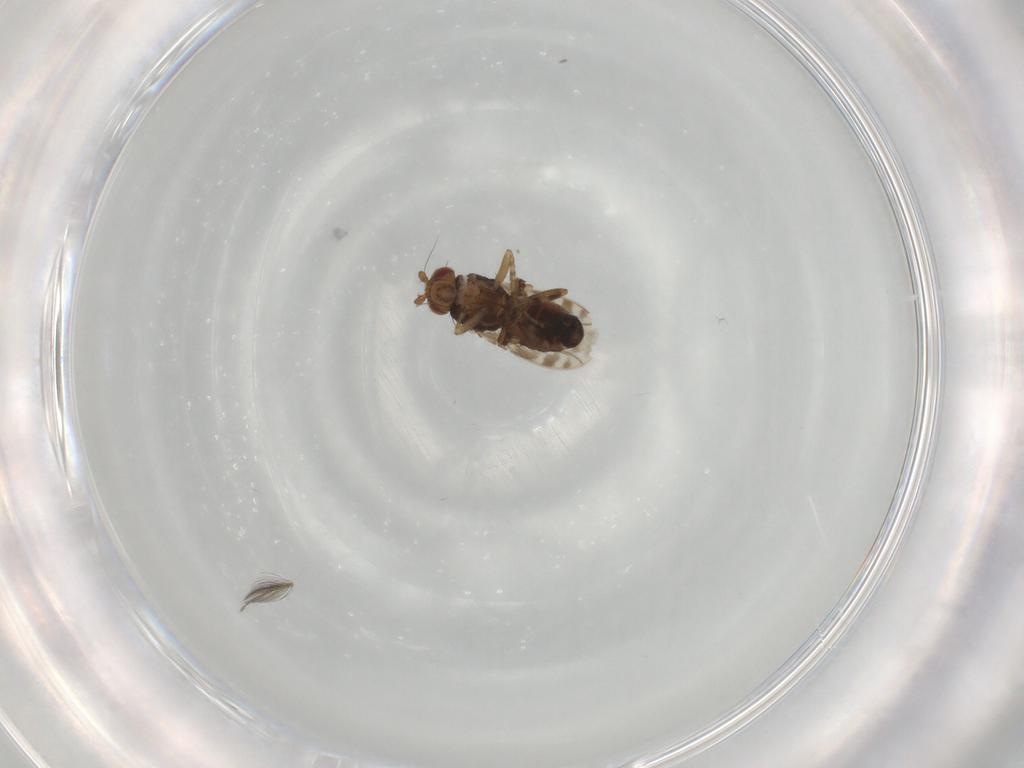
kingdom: Animalia
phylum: Arthropoda
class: Insecta
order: Diptera
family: Sphaeroceridae
